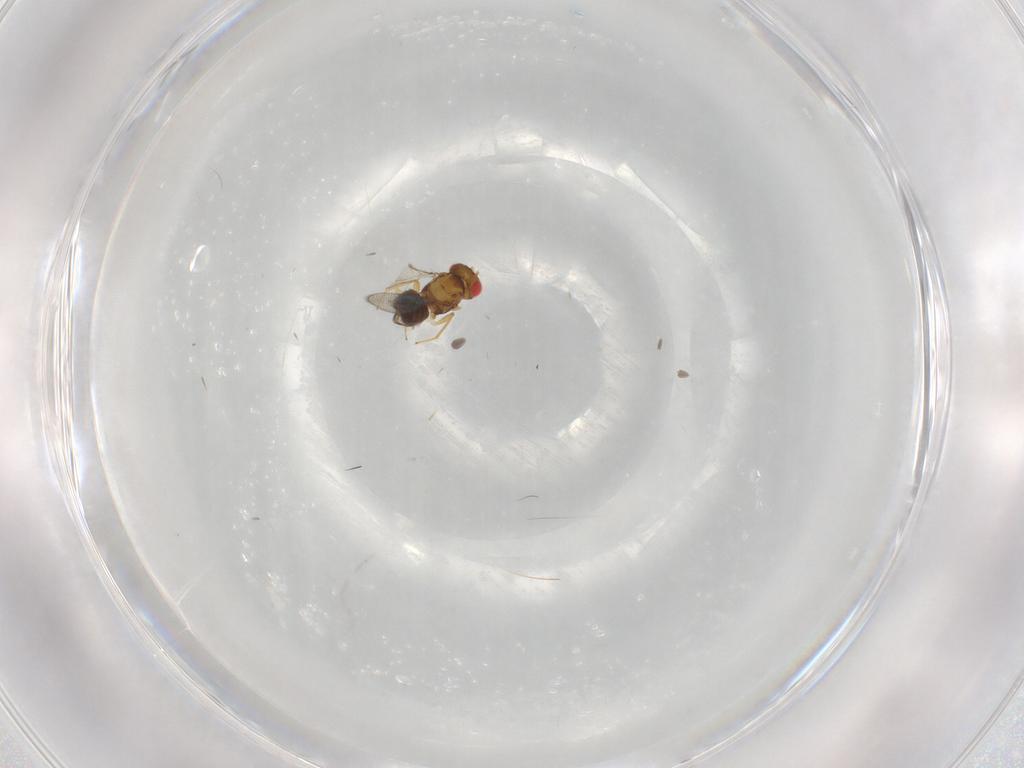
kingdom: Animalia
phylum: Arthropoda
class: Insecta
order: Hymenoptera
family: Eulophidae
